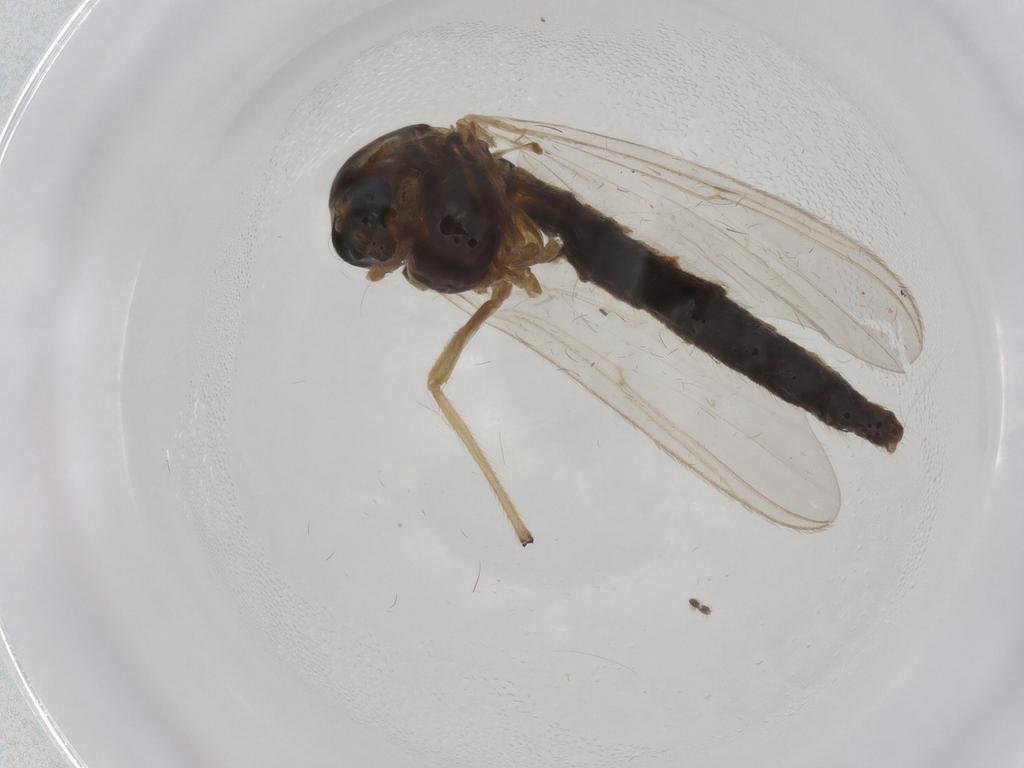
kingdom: Animalia
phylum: Arthropoda
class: Insecta
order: Diptera
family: Chironomidae
